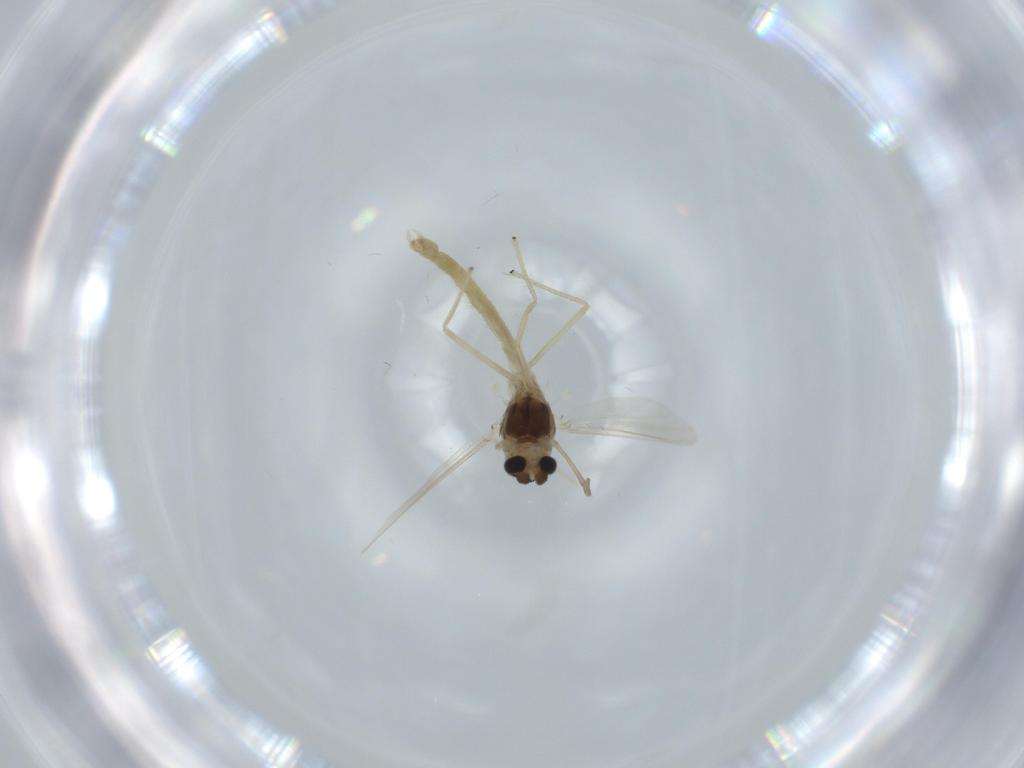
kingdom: Animalia
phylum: Arthropoda
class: Insecta
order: Diptera
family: Chironomidae
